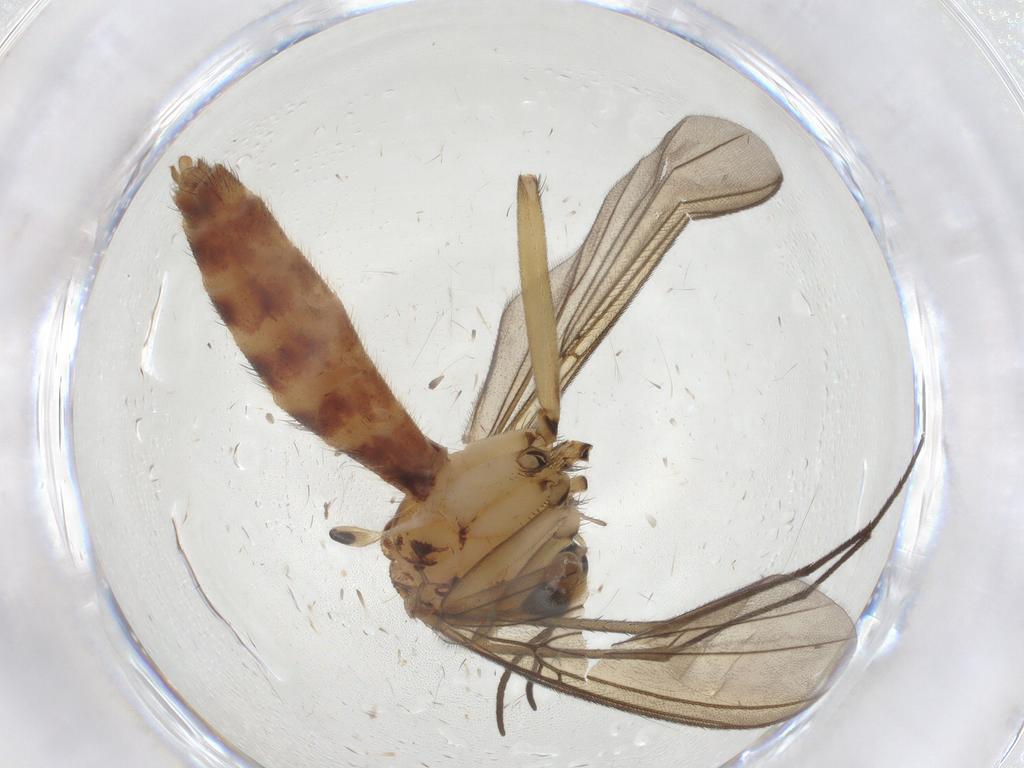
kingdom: Animalia
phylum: Arthropoda
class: Insecta
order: Diptera
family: Mycetophilidae
